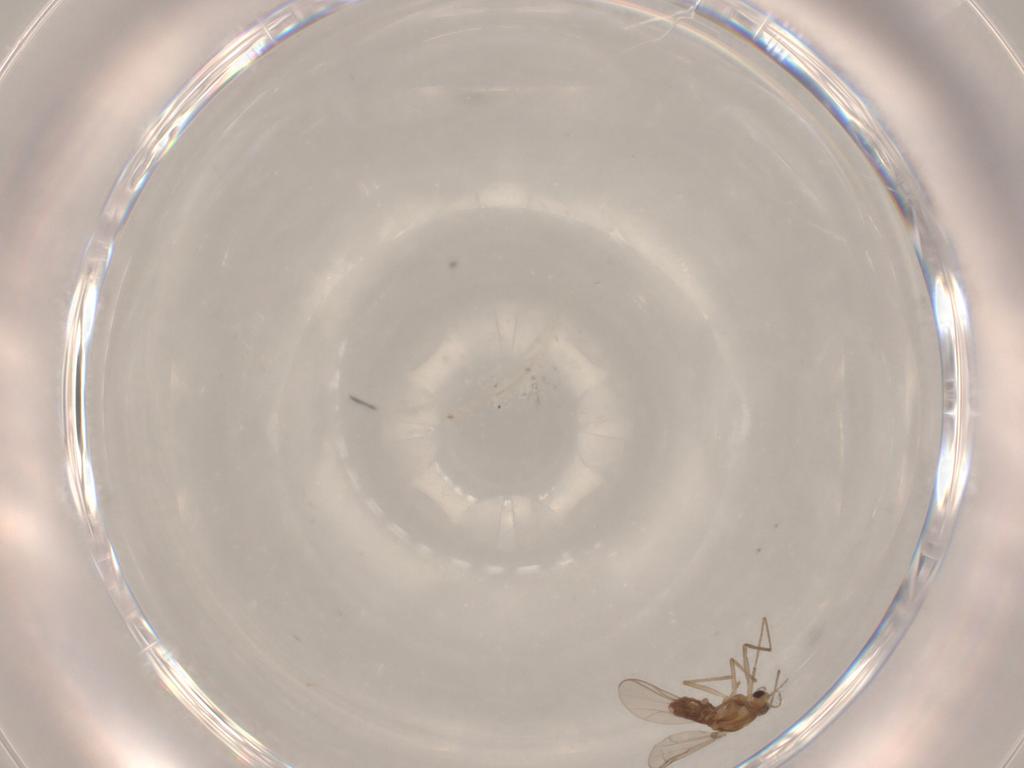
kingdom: Animalia
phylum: Arthropoda
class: Insecta
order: Diptera
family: Chironomidae
